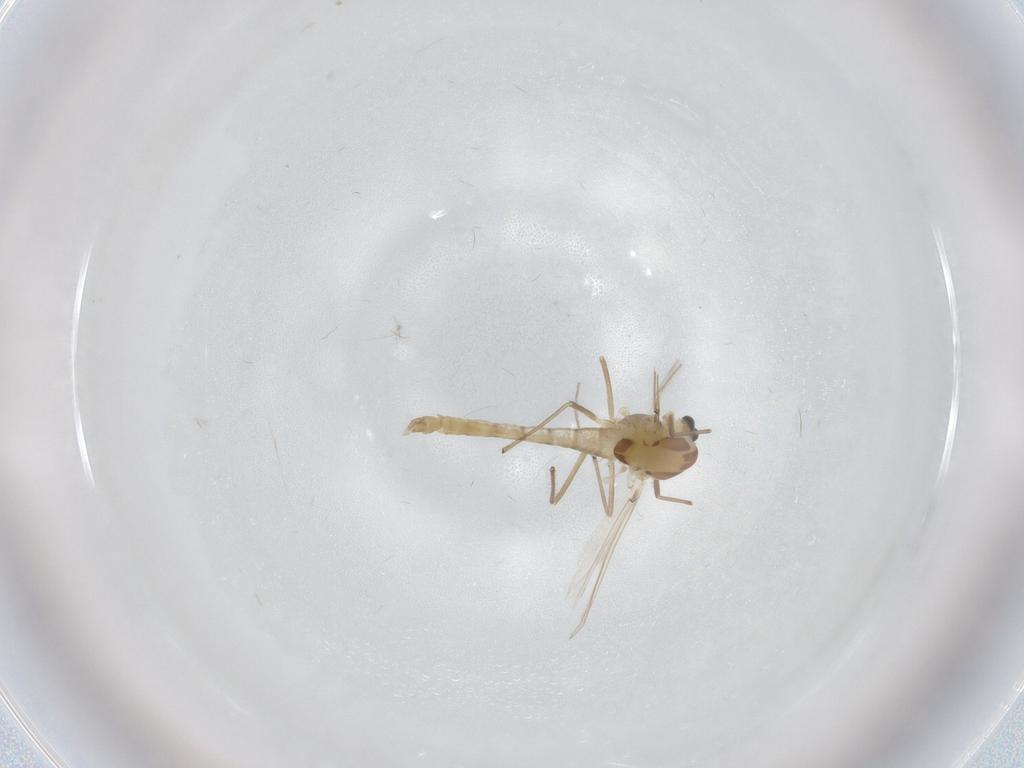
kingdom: Animalia
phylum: Arthropoda
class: Insecta
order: Diptera
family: Chironomidae
